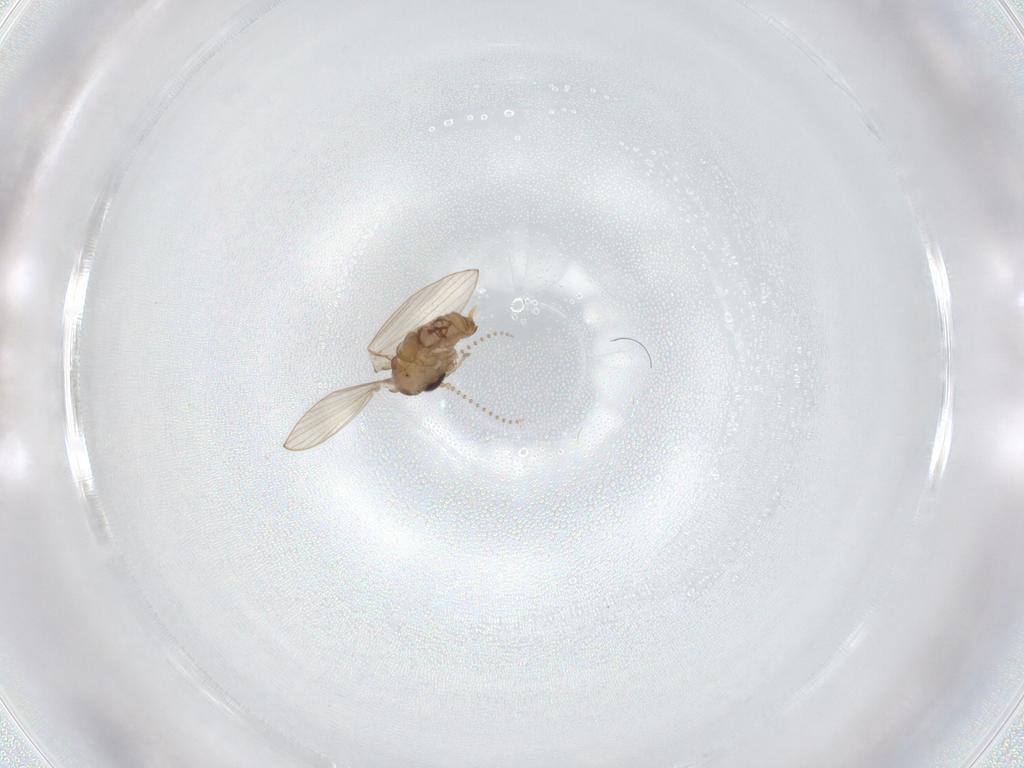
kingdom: Animalia
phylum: Arthropoda
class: Insecta
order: Diptera
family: Psychodidae
